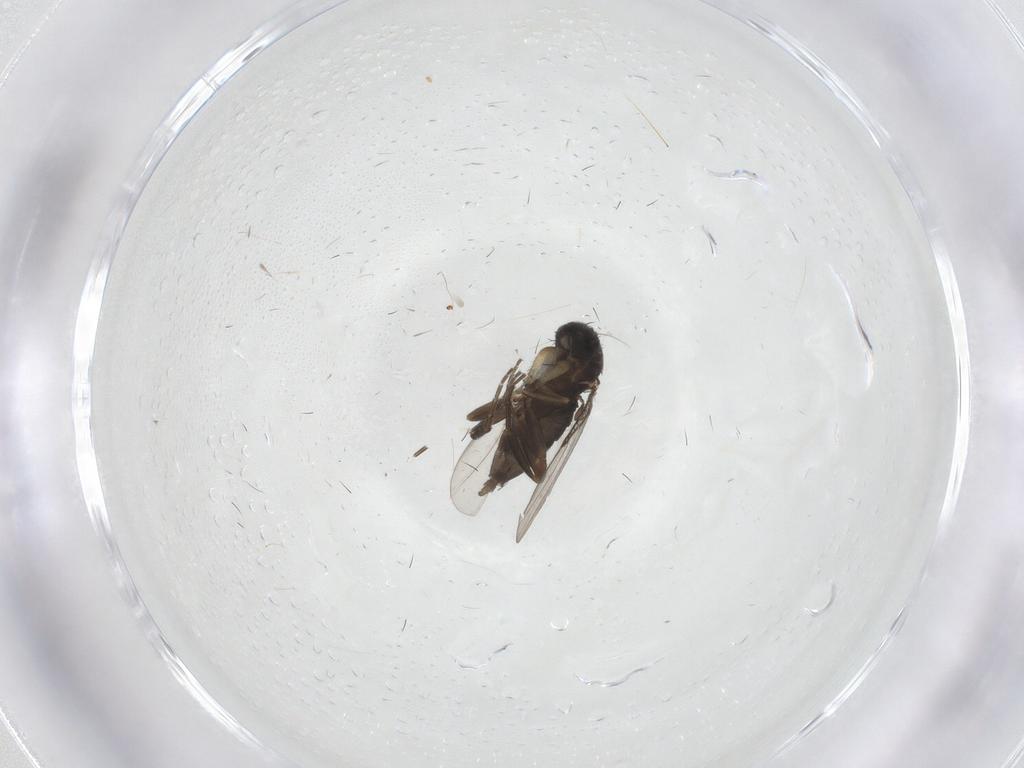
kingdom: Animalia
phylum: Arthropoda
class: Insecta
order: Diptera
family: Phoridae
